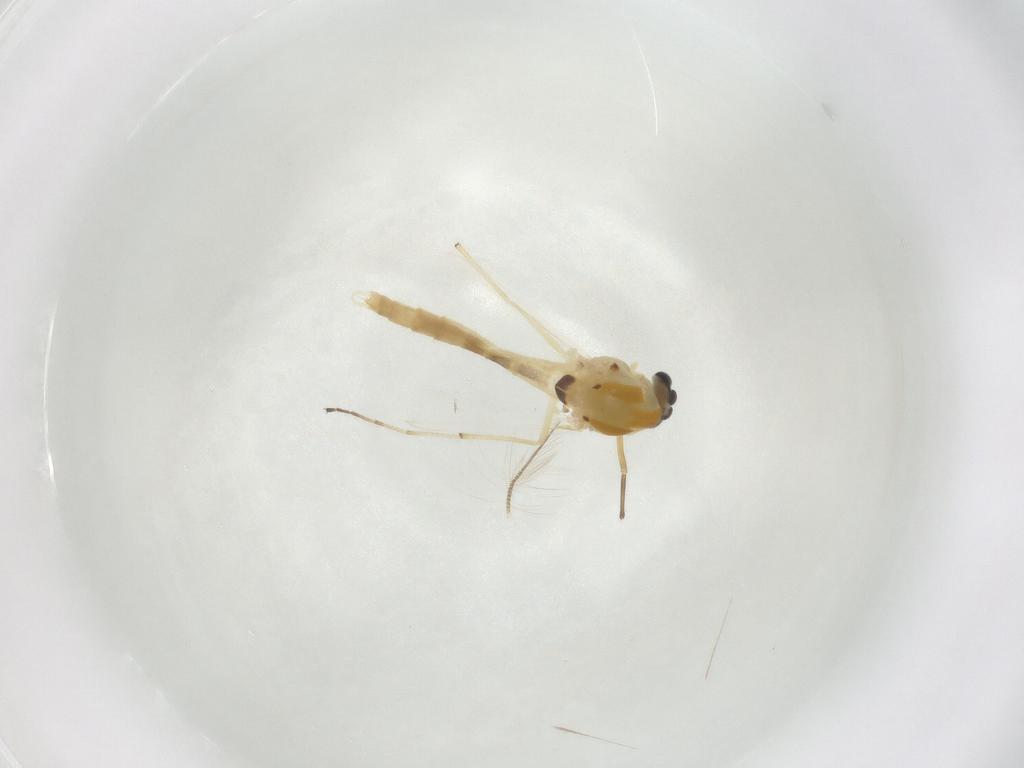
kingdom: Animalia
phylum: Arthropoda
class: Insecta
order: Diptera
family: Chironomidae
